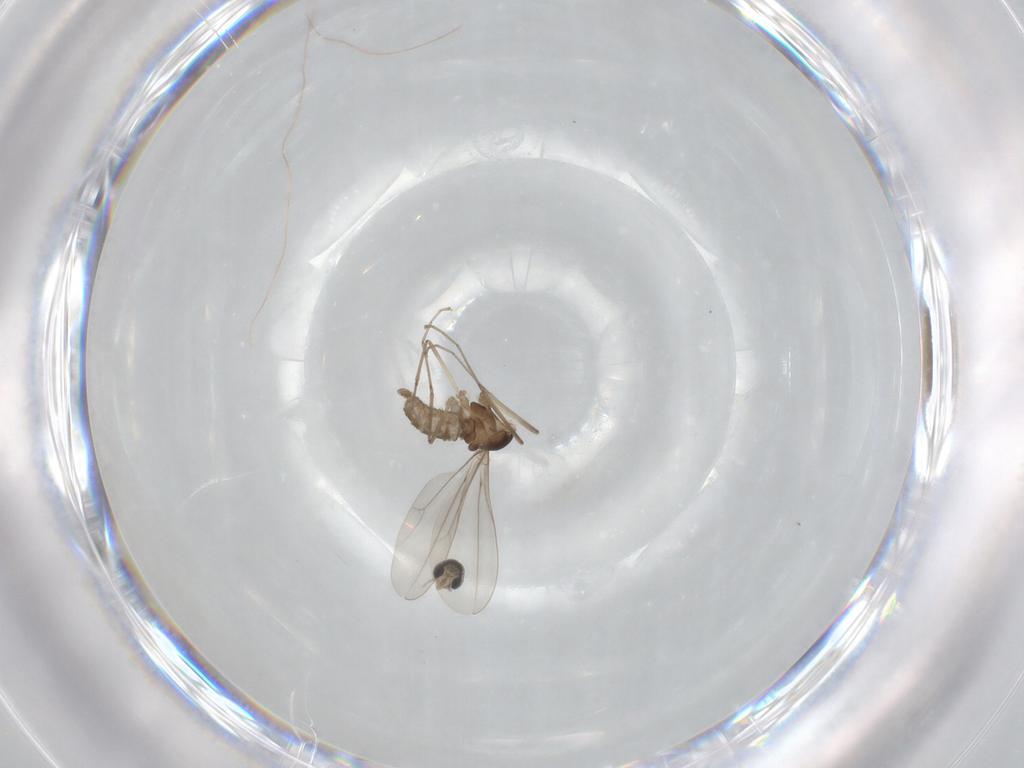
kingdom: Animalia
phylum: Arthropoda
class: Insecta
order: Diptera
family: Cecidomyiidae
